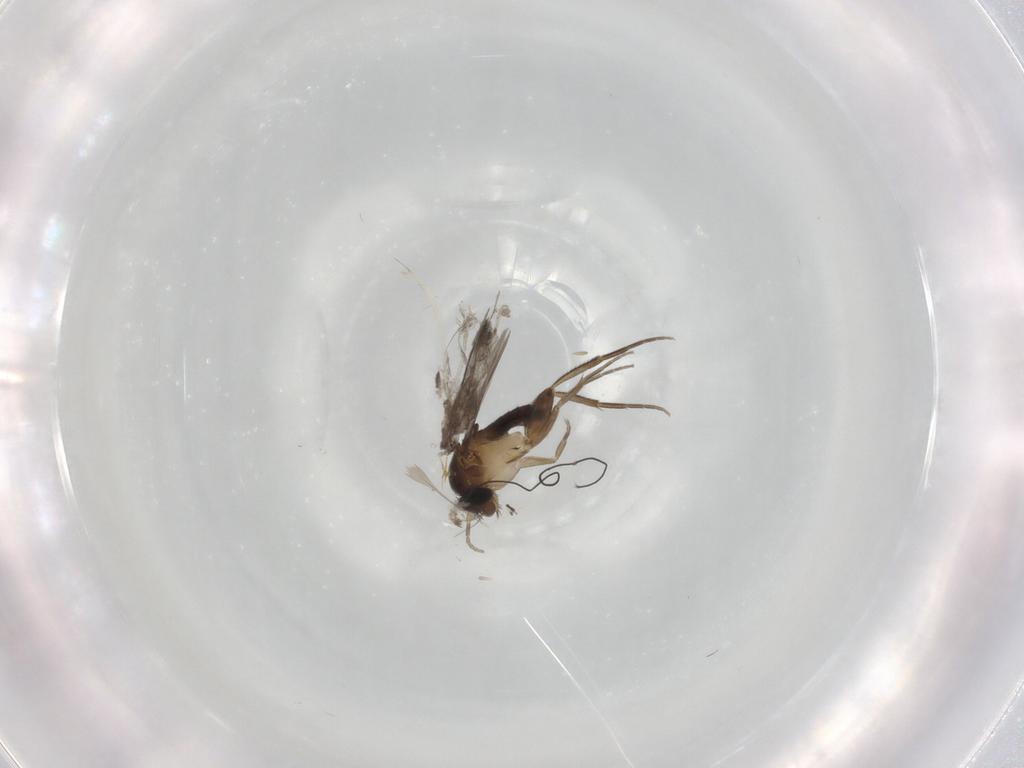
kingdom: Animalia
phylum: Arthropoda
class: Insecta
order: Diptera
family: Phoridae
